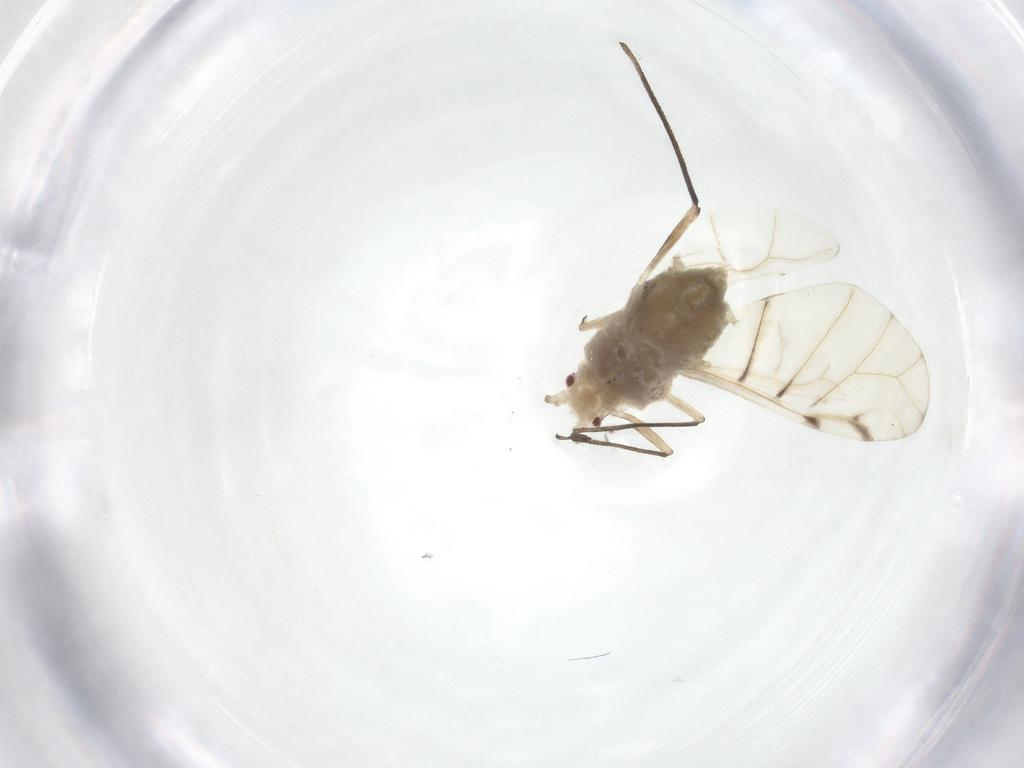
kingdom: Animalia
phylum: Arthropoda
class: Insecta
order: Hemiptera
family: Aphididae
